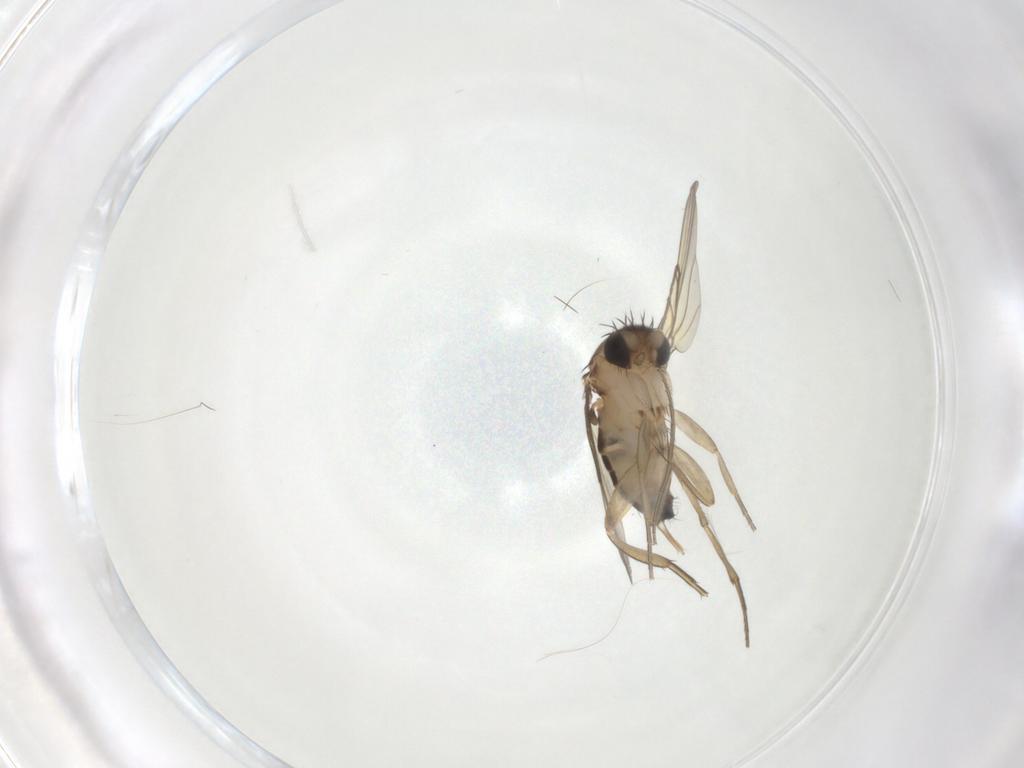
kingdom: Animalia
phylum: Arthropoda
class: Insecta
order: Diptera
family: Phoridae
